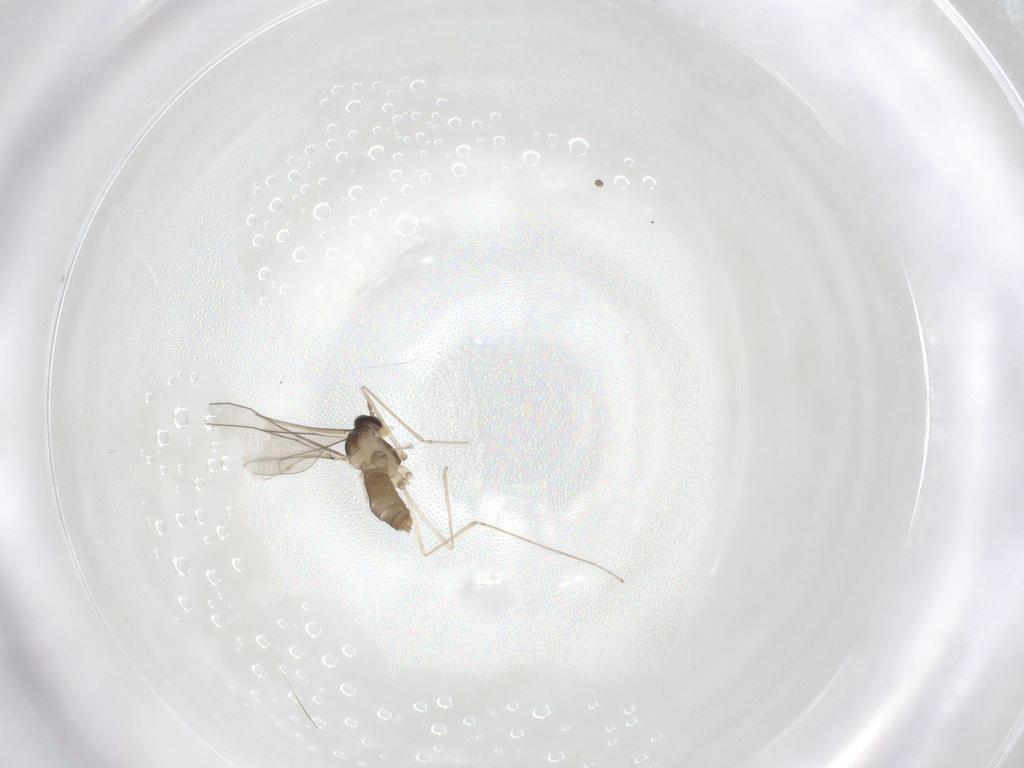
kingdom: Animalia
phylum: Arthropoda
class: Insecta
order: Diptera
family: Cecidomyiidae
